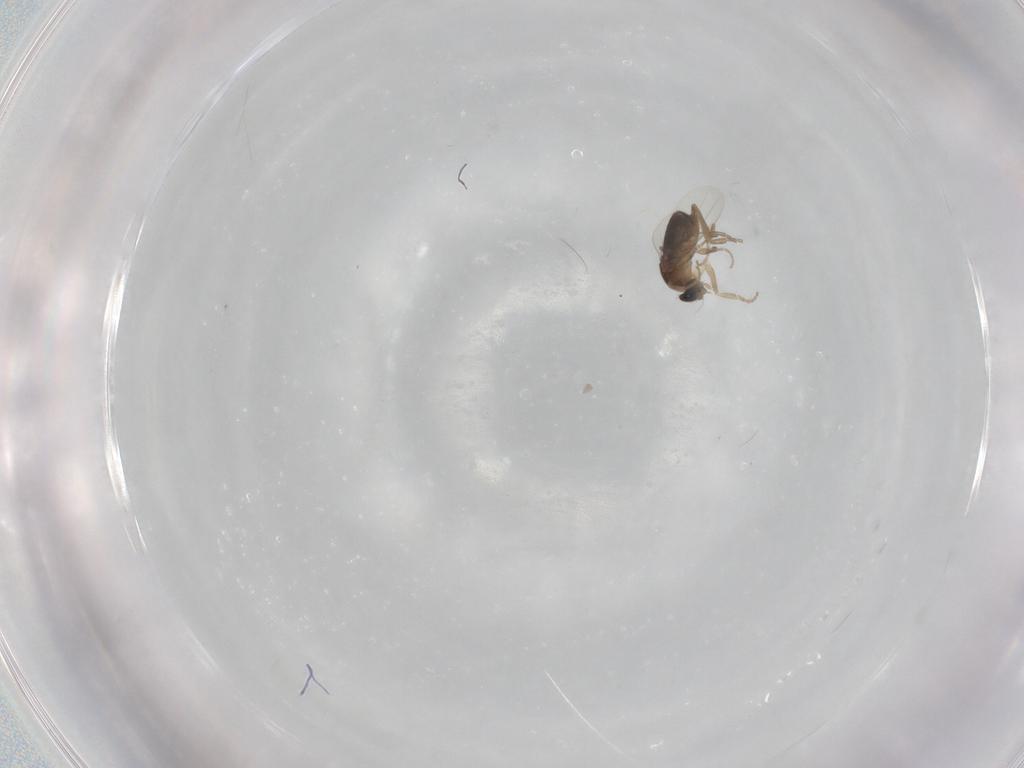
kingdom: Animalia
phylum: Arthropoda
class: Insecta
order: Diptera
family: Phoridae
